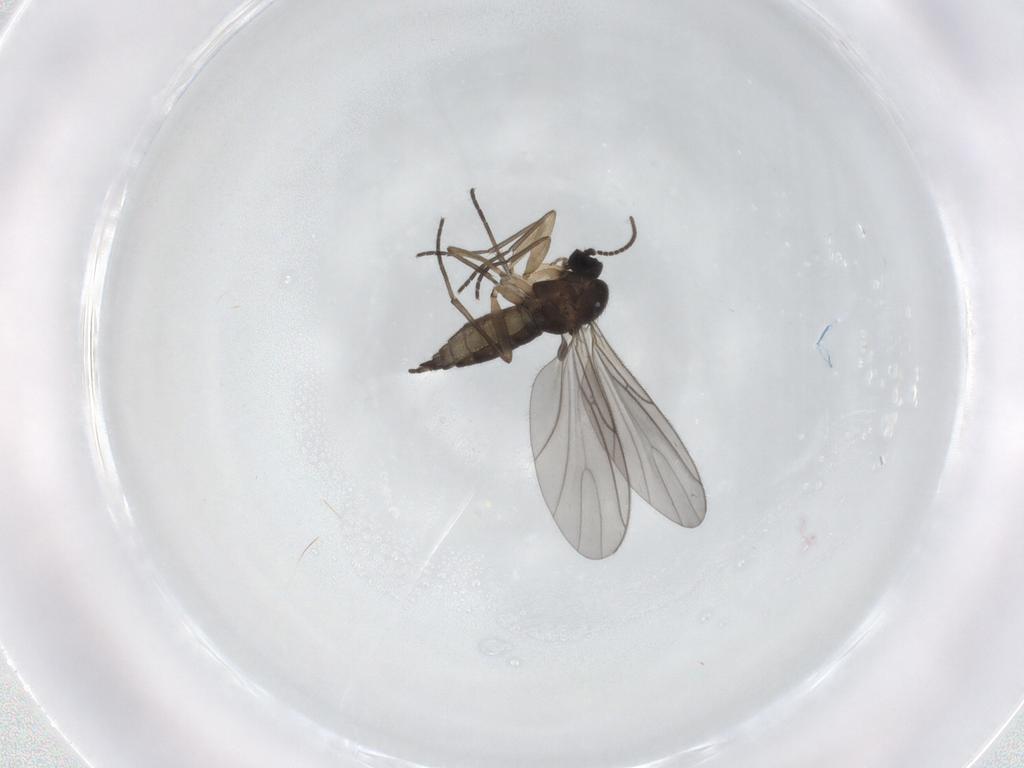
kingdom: Animalia
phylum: Arthropoda
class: Insecta
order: Diptera
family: Sciaridae
